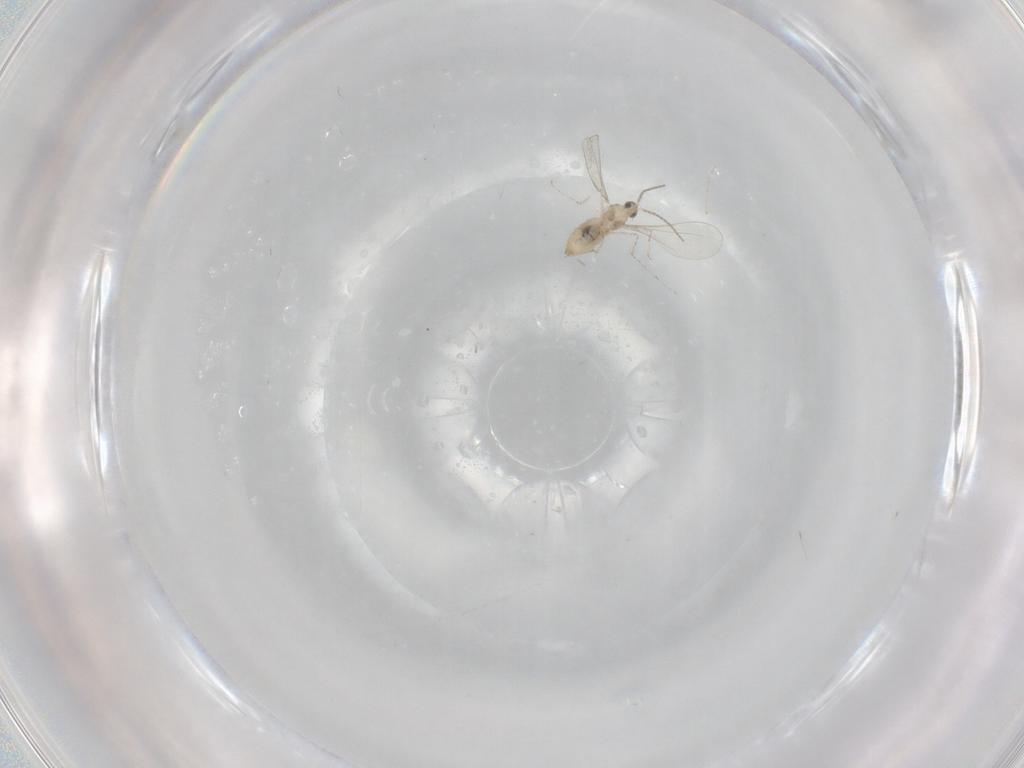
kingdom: Animalia
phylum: Arthropoda
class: Insecta
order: Diptera
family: Ceratopogonidae
